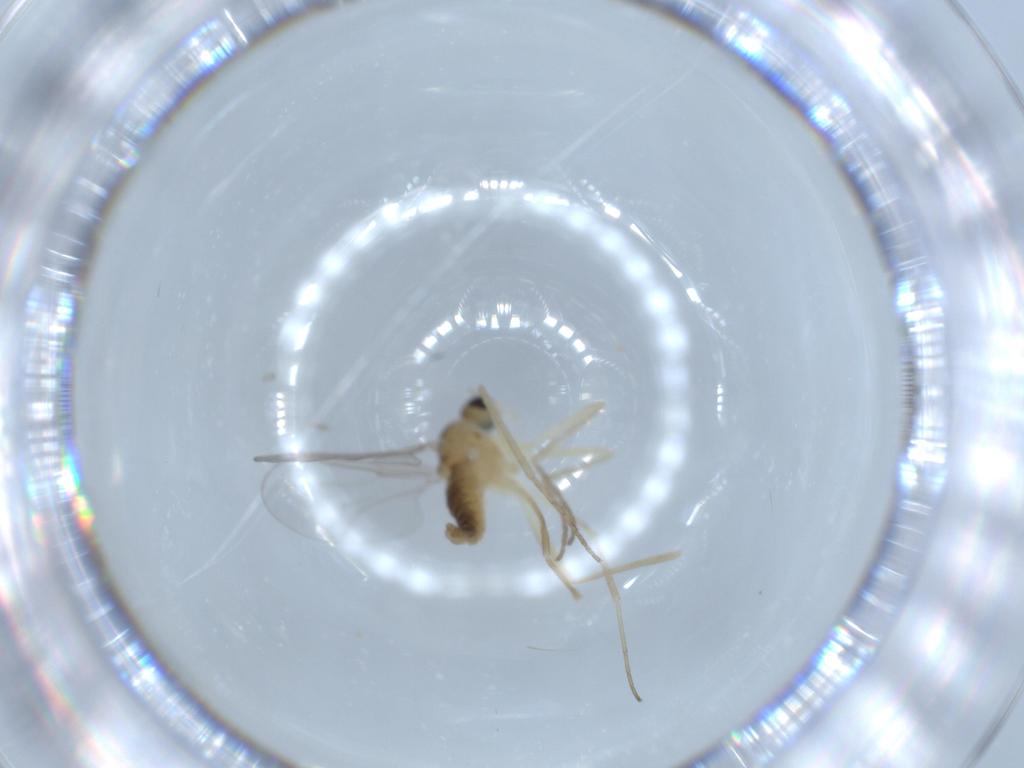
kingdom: Animalia
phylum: Arthropoda
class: Insecta
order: Diptera
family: Cecidomyiidae
